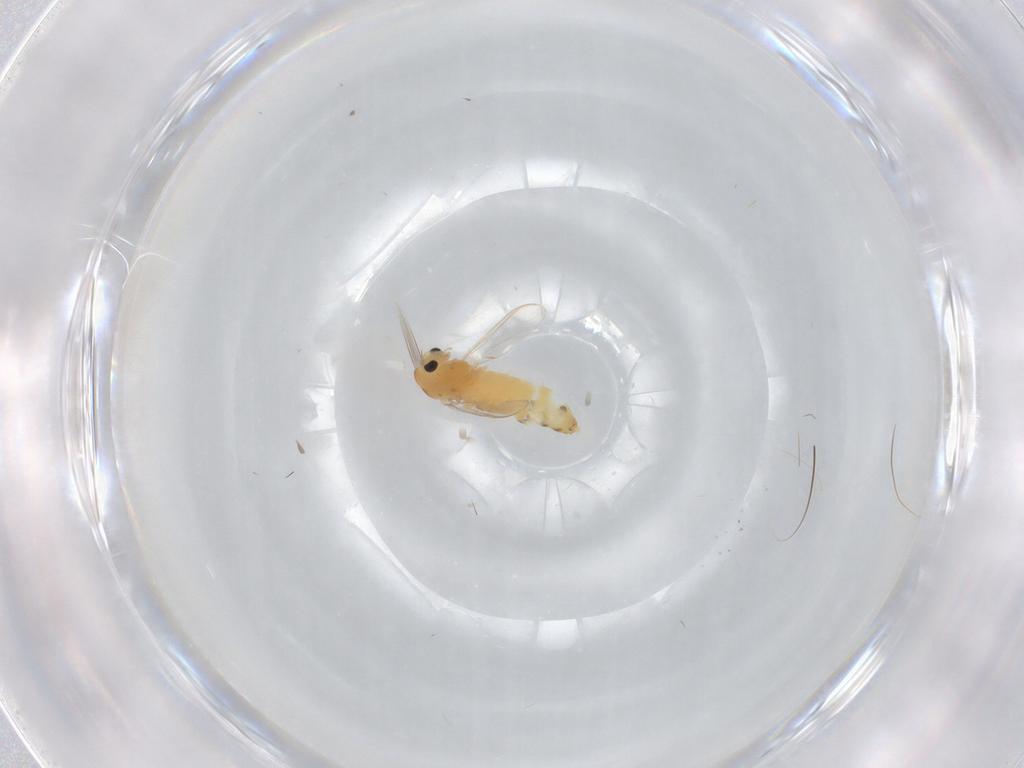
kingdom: Animalia
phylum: Arthropoda
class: Insecta
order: Diptera
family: Chironomidae
